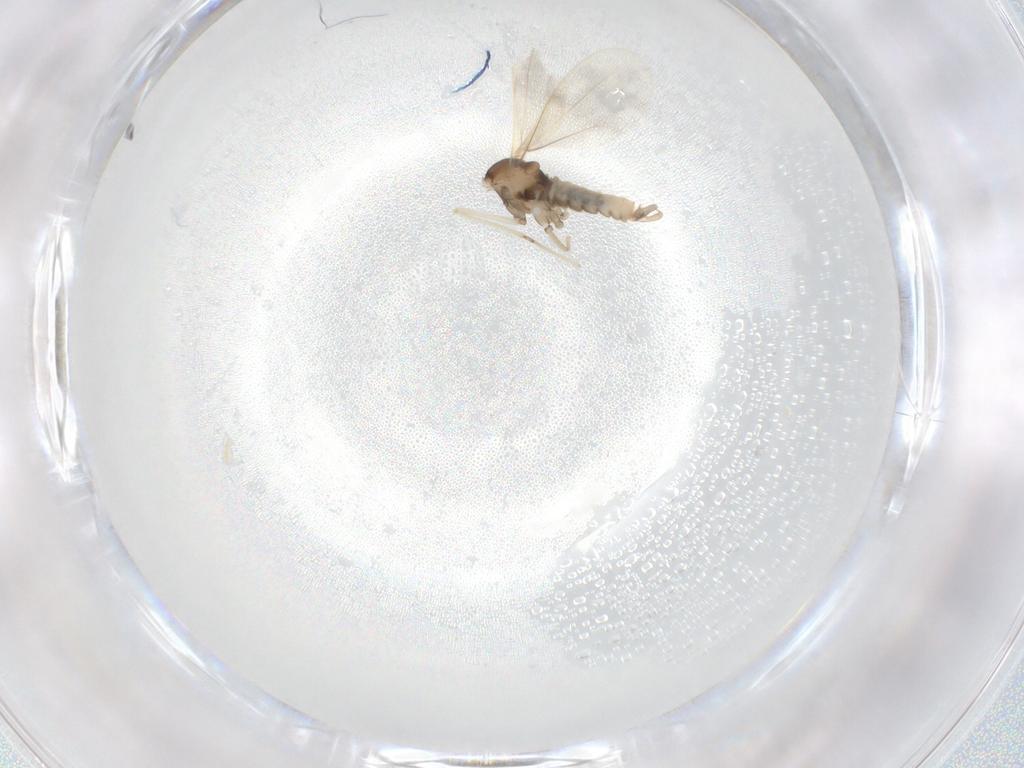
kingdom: Animalia
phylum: Arthropoda
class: Insecta
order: Diptera
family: Cecidomyiidae
